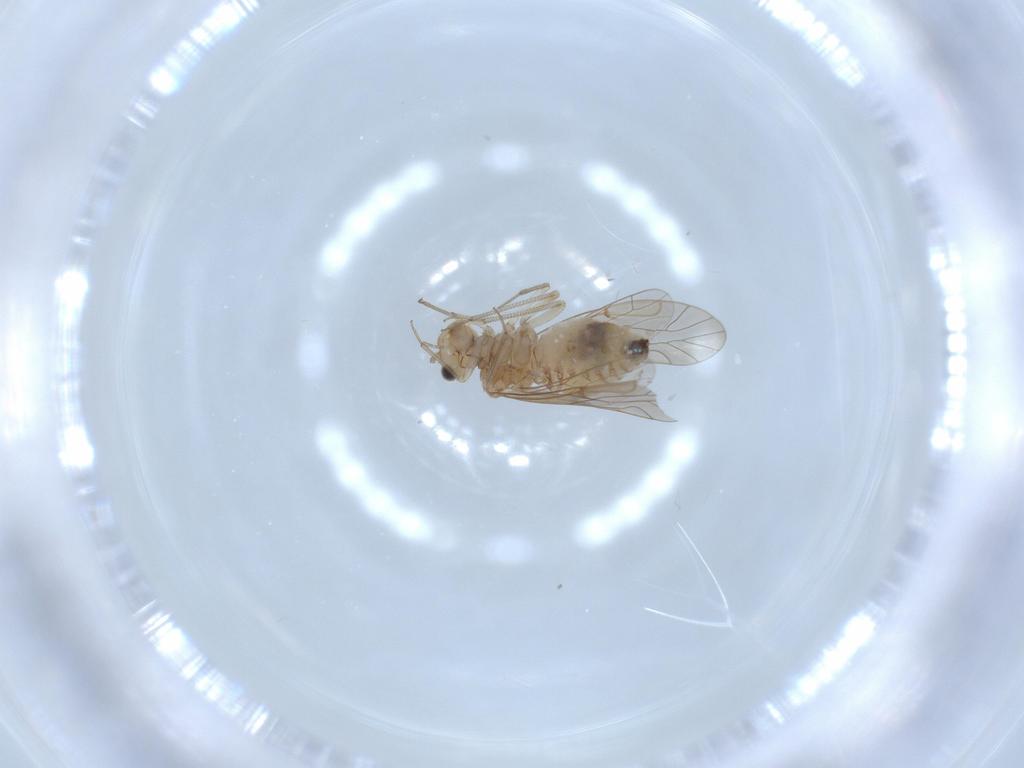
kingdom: Animalia
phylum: Arthropoda
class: Insecta
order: Psocodea
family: Lachesillidae
